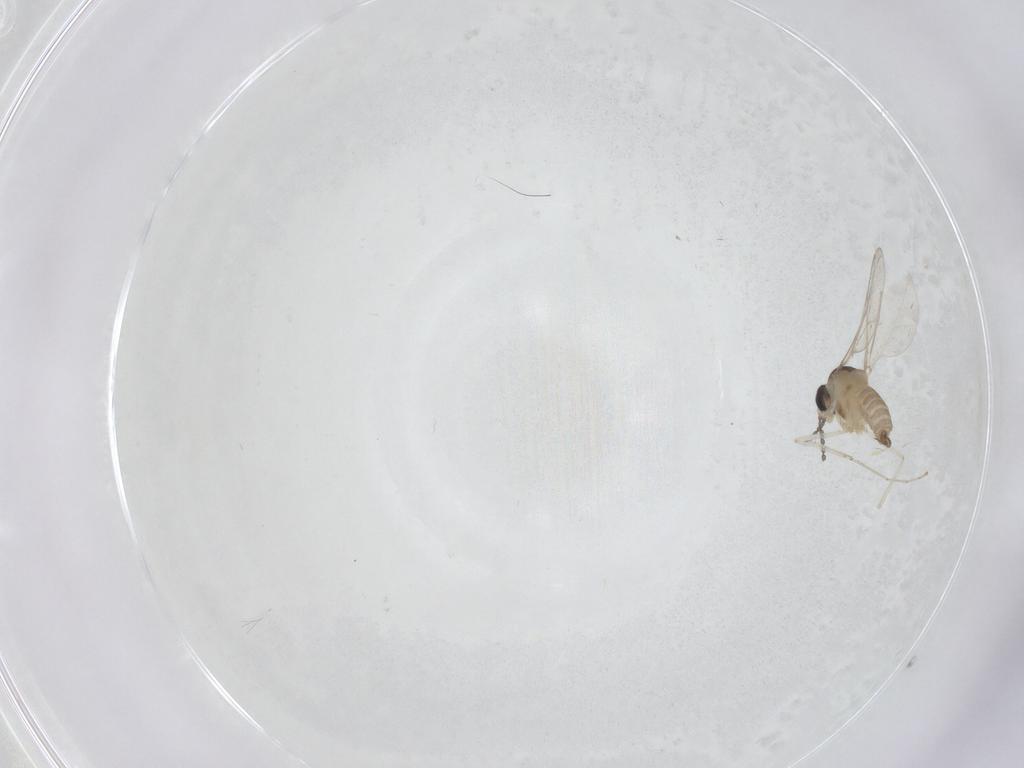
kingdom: Animalia
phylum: Arthropoda
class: Insecta
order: Diptera
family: Cecidomyiidae
